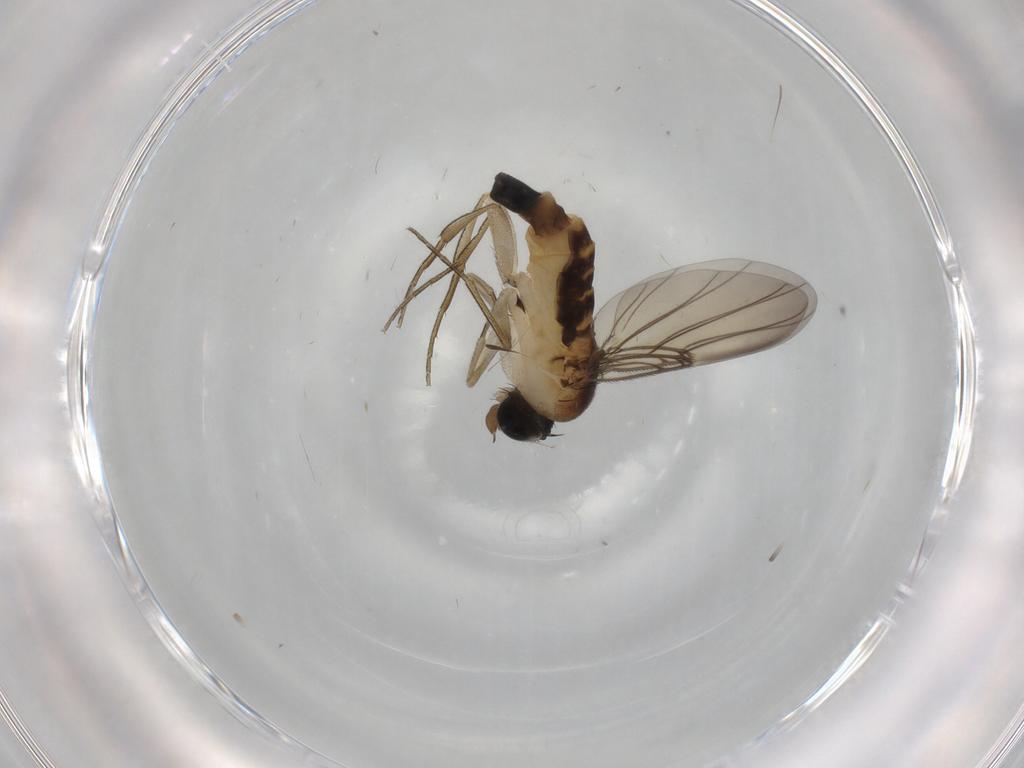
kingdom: Animalia
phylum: Arthropoda
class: Insecta
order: Diptera
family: Phoridae
